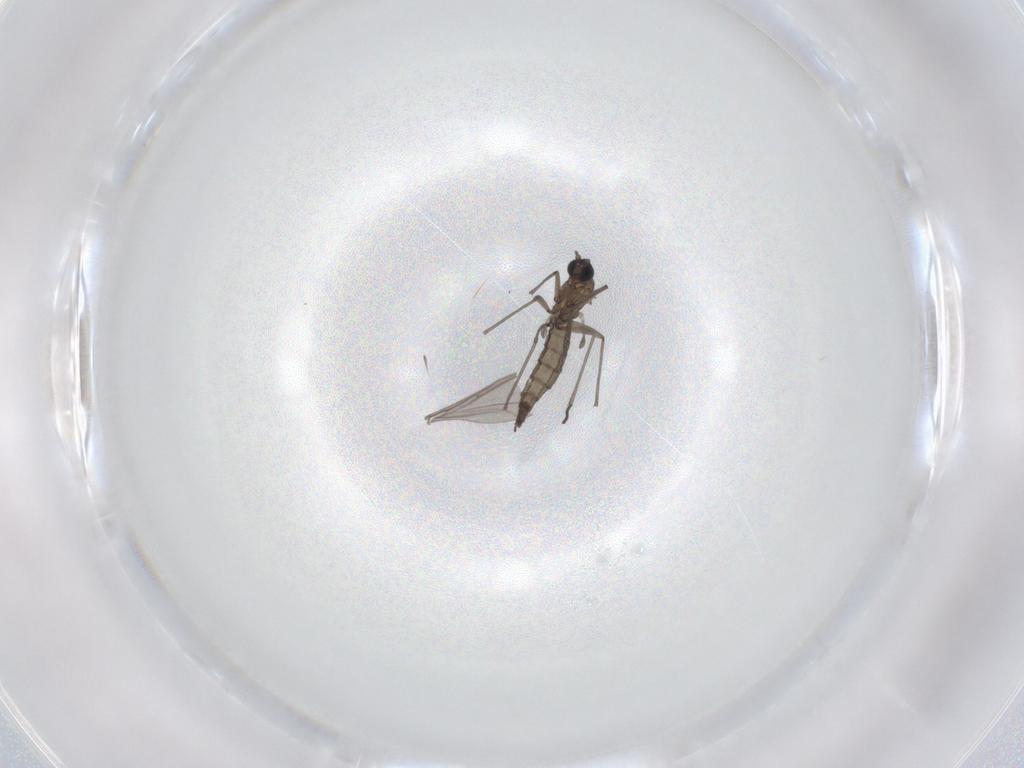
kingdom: Animalia
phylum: Arthropoda
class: Insecta
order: Diptera
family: Sciaridae
